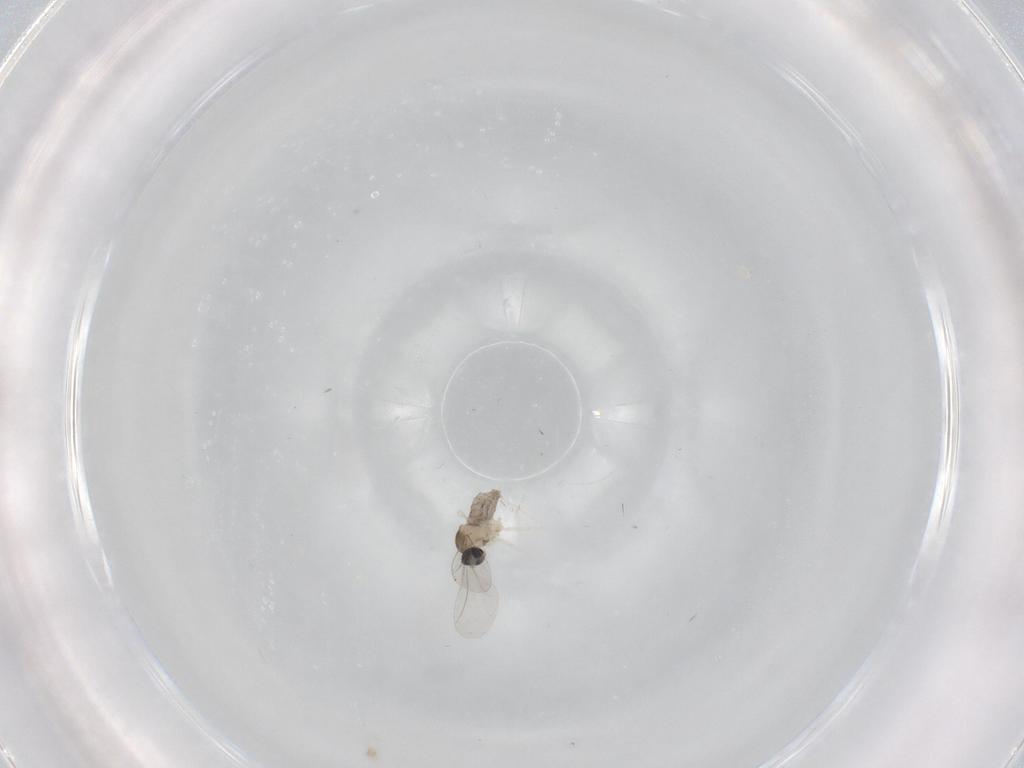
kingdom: Animalia
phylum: Arthropoda
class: Insecta
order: Diptera
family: Cecidomyiidae
